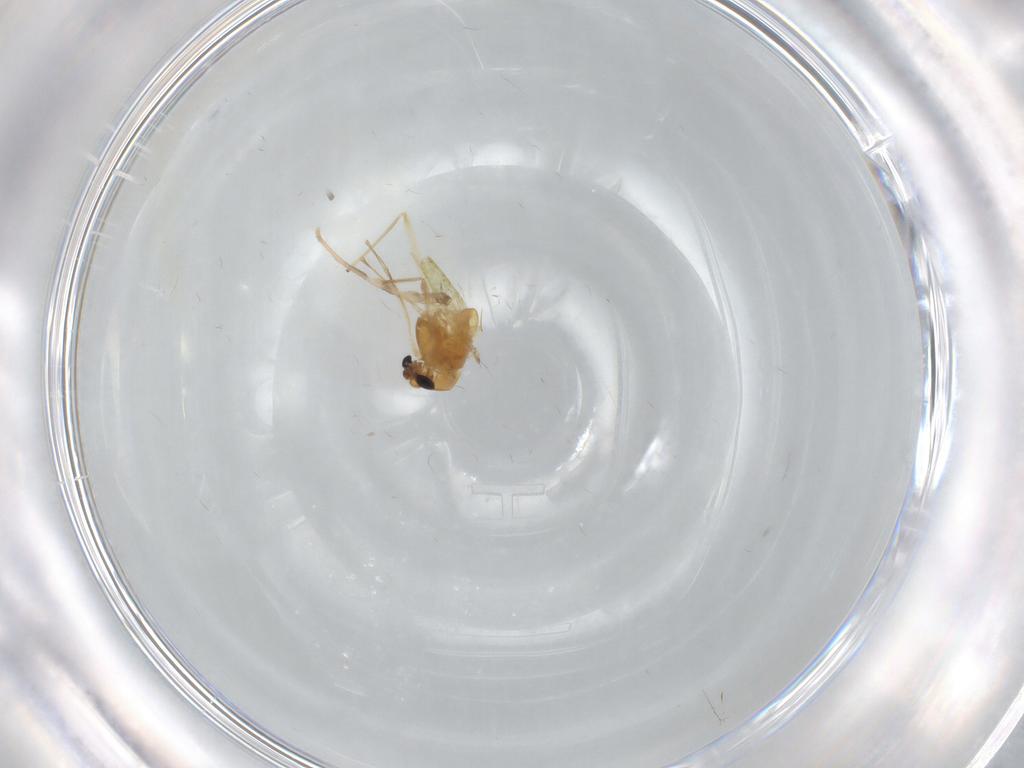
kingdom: Animalia
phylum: Arthropoda
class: Insecta
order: Diptera
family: Chironomidae
